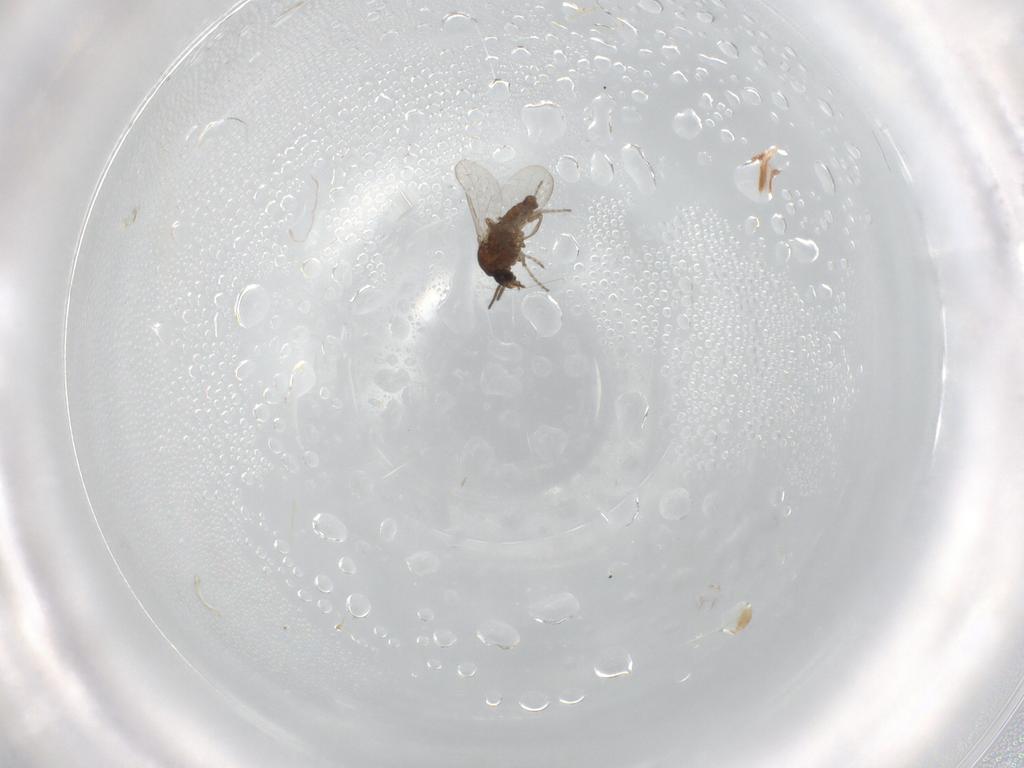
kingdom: Animalia
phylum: Arthropoda
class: Insecta
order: Diptera
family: Ceratopogonidae
